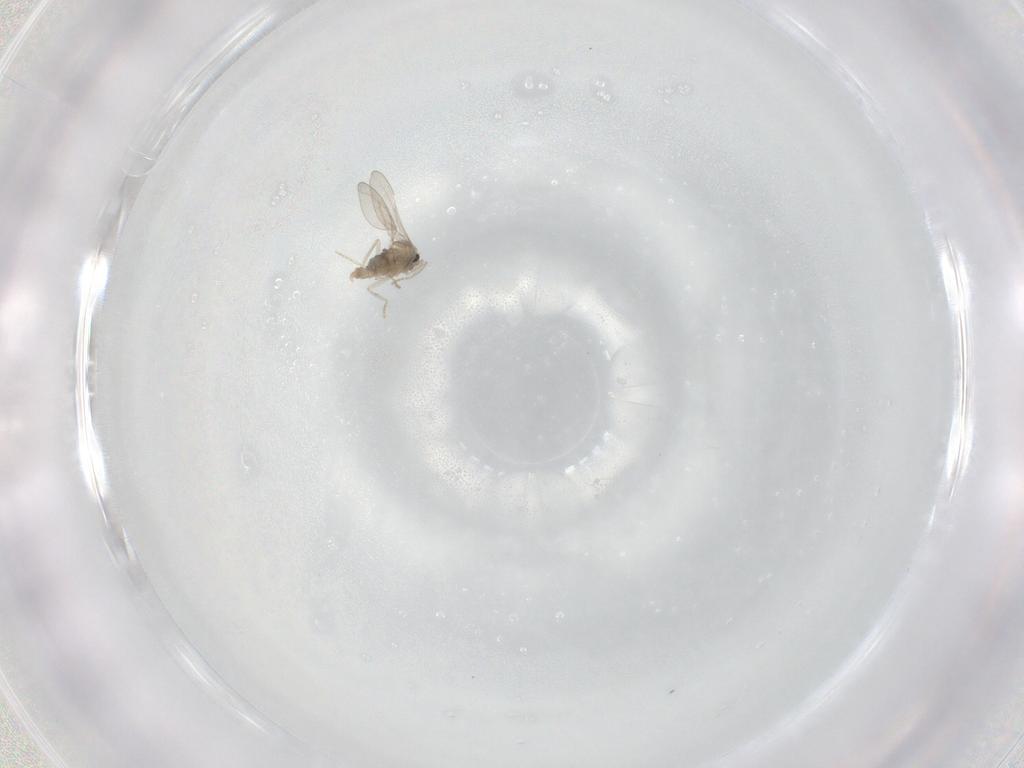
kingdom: Animalia
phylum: Arthropoda
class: Insecta
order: Diptera
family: Cecidomyiidae
